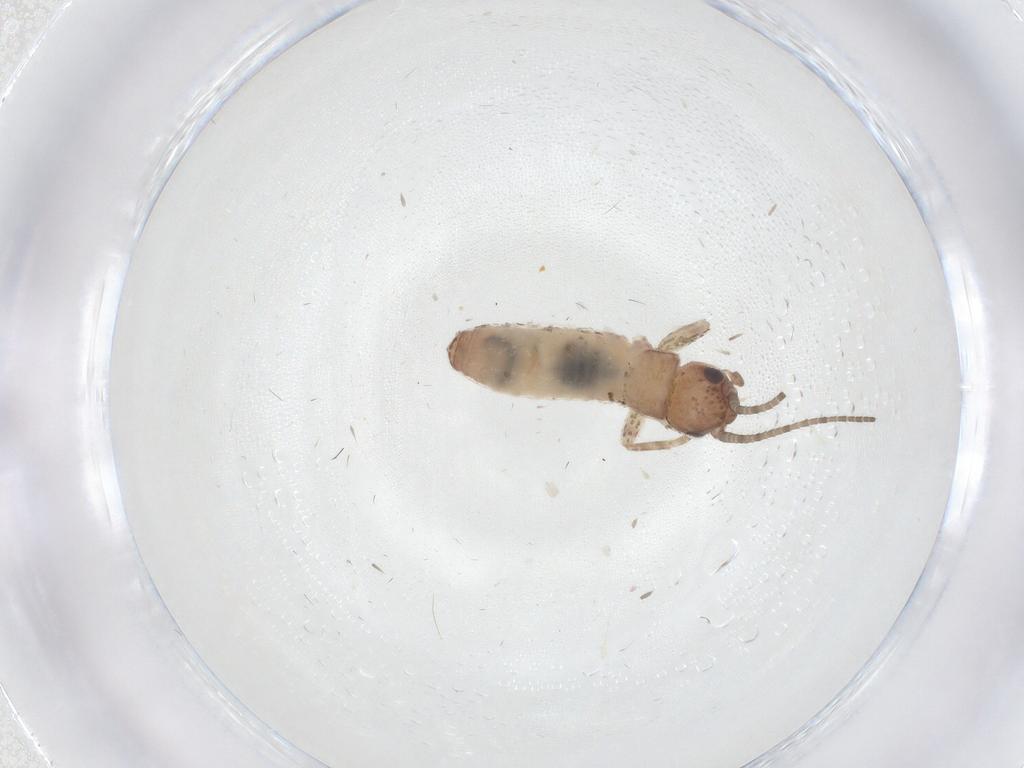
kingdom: Animalia
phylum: Arthropoda
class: Insecta
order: Orthoptera
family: Gryllidae
